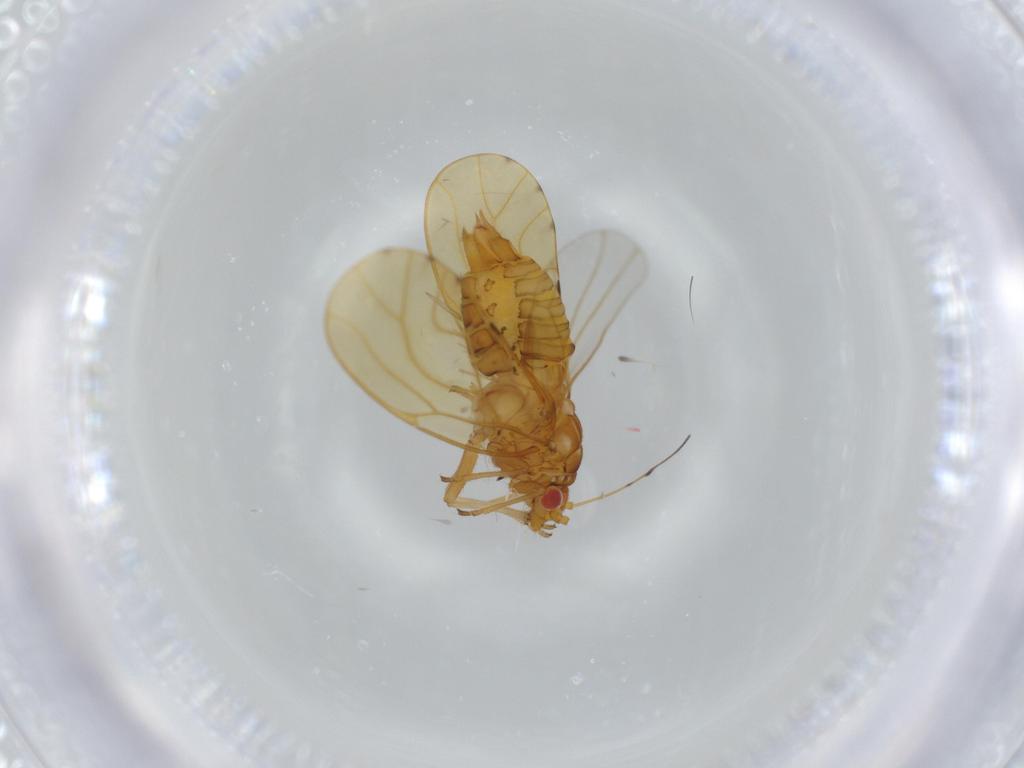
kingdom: Animalia
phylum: Arthropoda
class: Insecta
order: Hemiptera
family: Psylloidea_incertae_sedis
